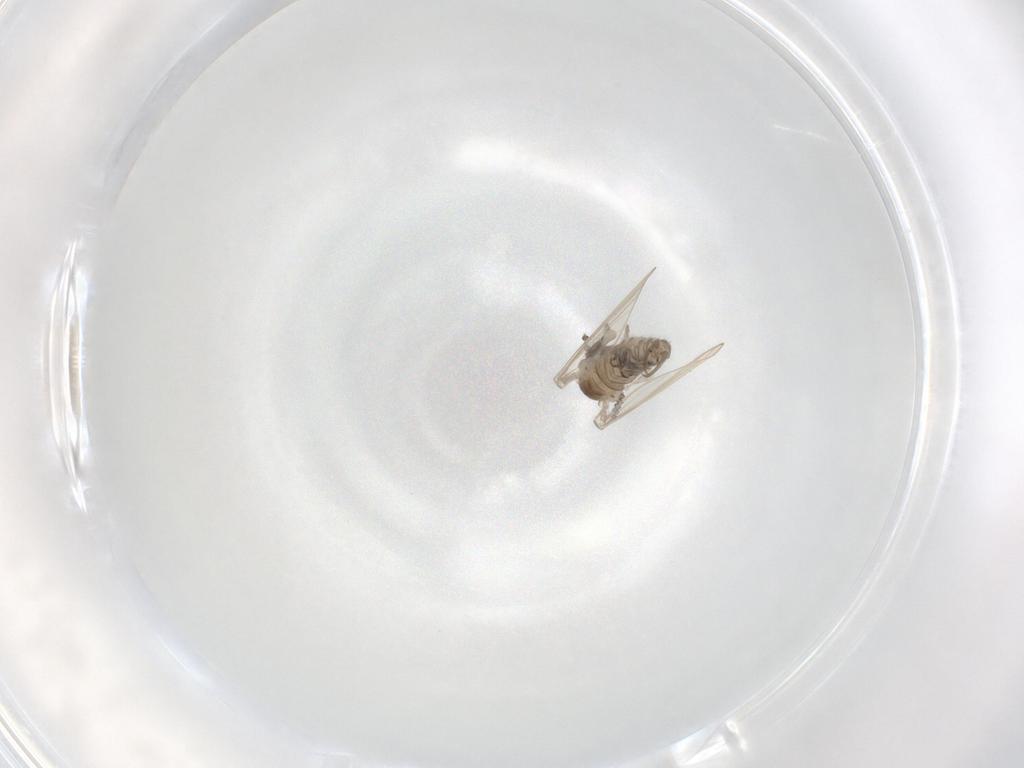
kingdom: Animalia
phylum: Arthropoda
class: Insecta
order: Diptera
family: Psychodidae
